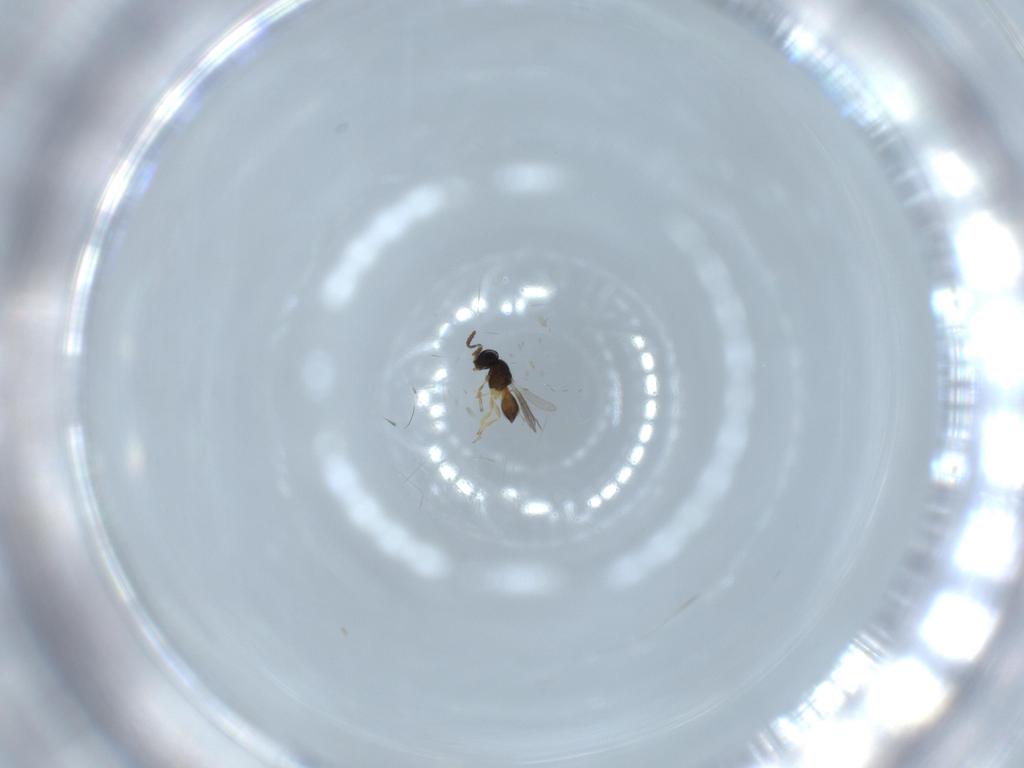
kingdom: Animalia
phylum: Arthropoda
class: Insecta
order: Hymenoptera
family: Scelionidae
